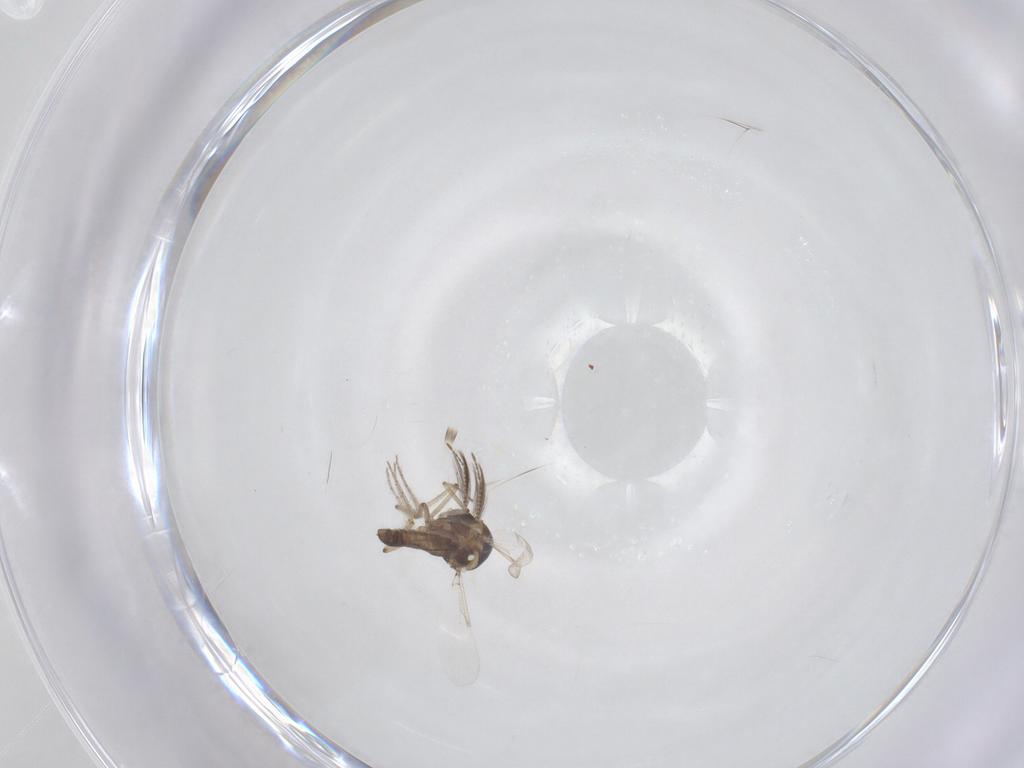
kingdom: Animalia
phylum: Arthropoda
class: Insecta
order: Diptera
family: Ceratopogonidae
